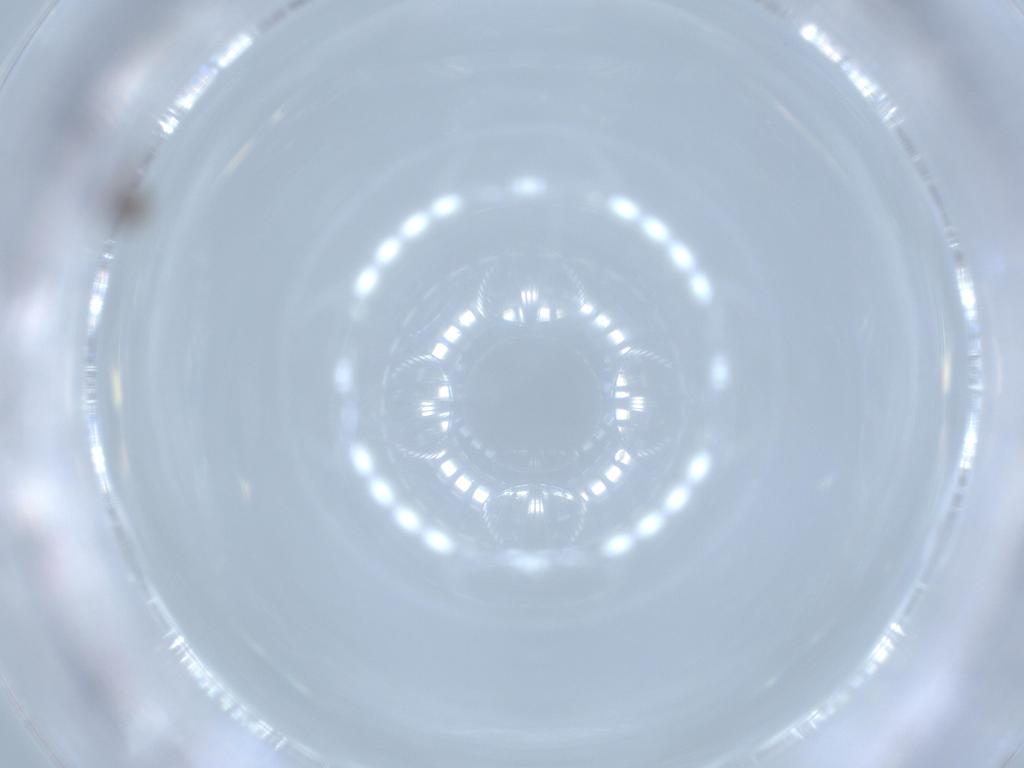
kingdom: Animalia
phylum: Arthropoda
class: Insecta
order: Diptera
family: Cecidomyiidae
